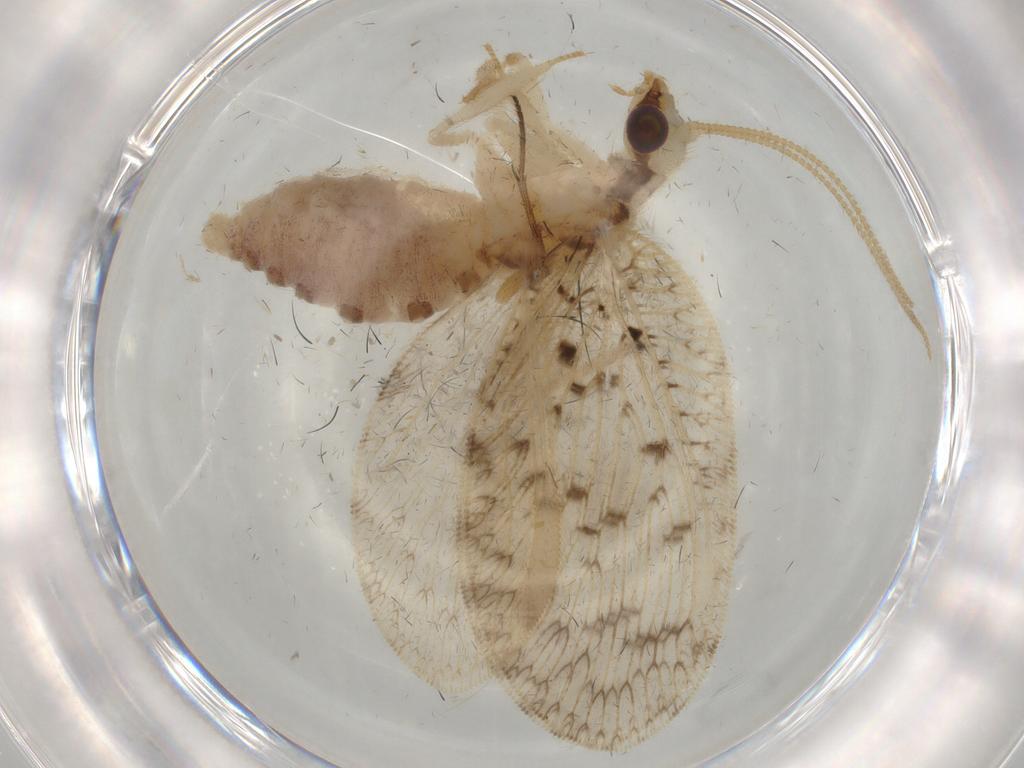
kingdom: Animalia
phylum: Arthropoda
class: Insecta
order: Neuroptera
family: Hemerobiidae
